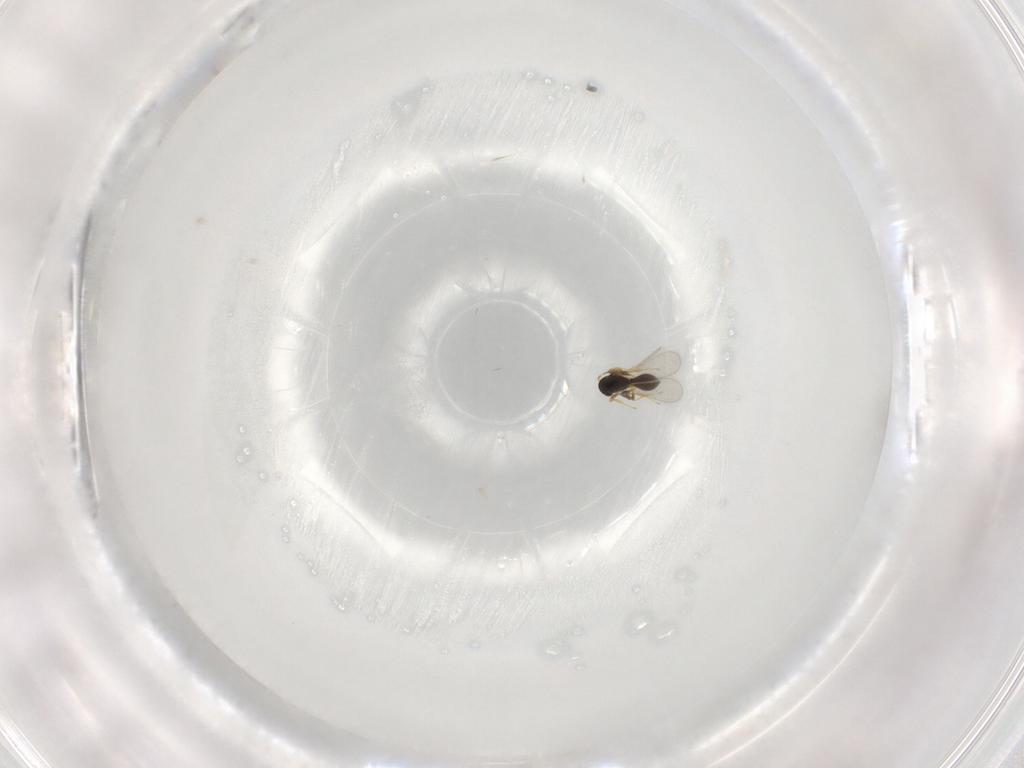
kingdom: Animalia
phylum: Arthropoda
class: Insecta
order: Hymenoptera
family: Platygastridae
